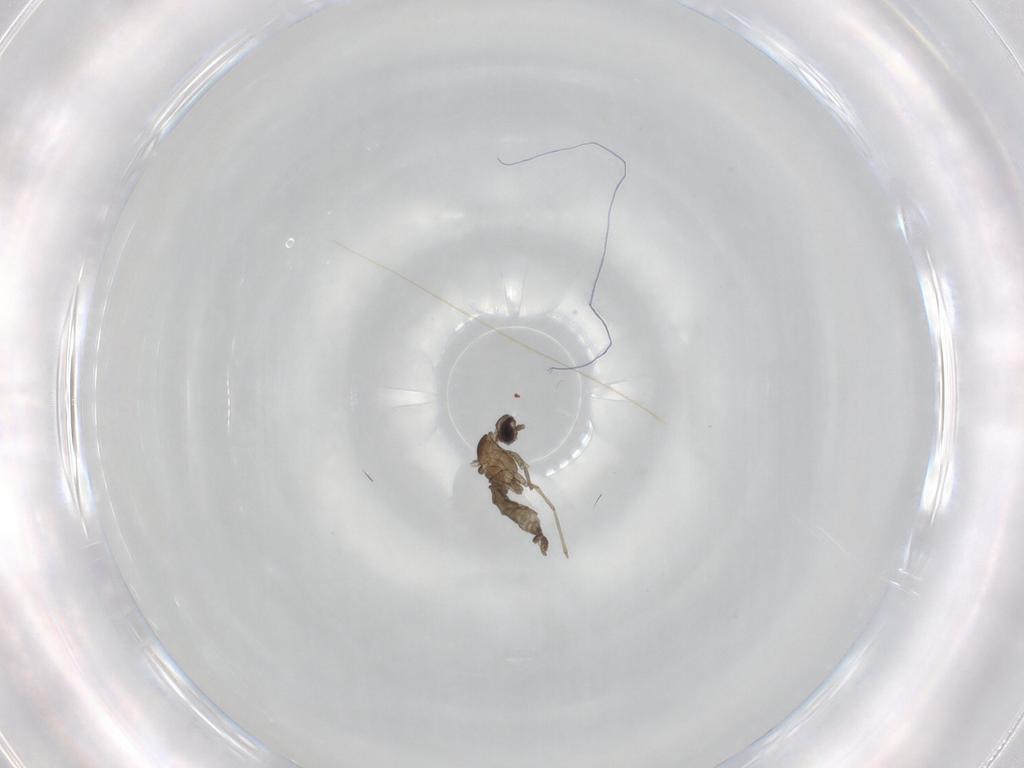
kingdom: Animalia
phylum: Arthropoda
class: Insecta
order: Diptera
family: Cecidomyiidae
